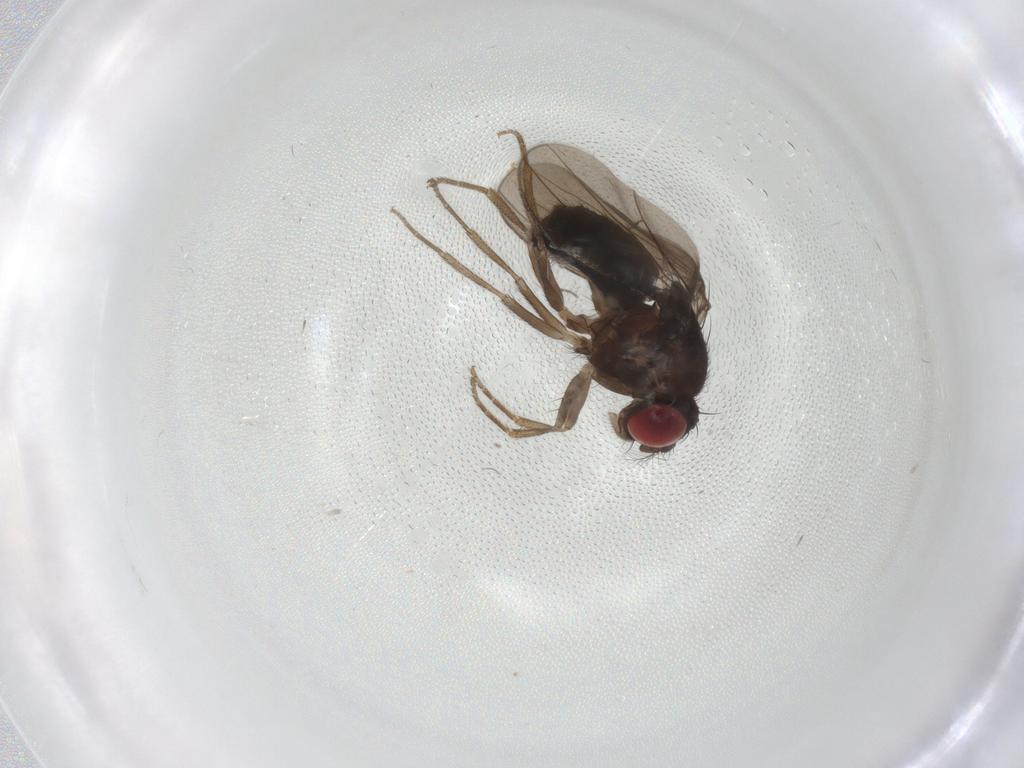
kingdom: Animalia
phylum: Arthropoda
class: Insecta
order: Diptera
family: Drosophilidae
